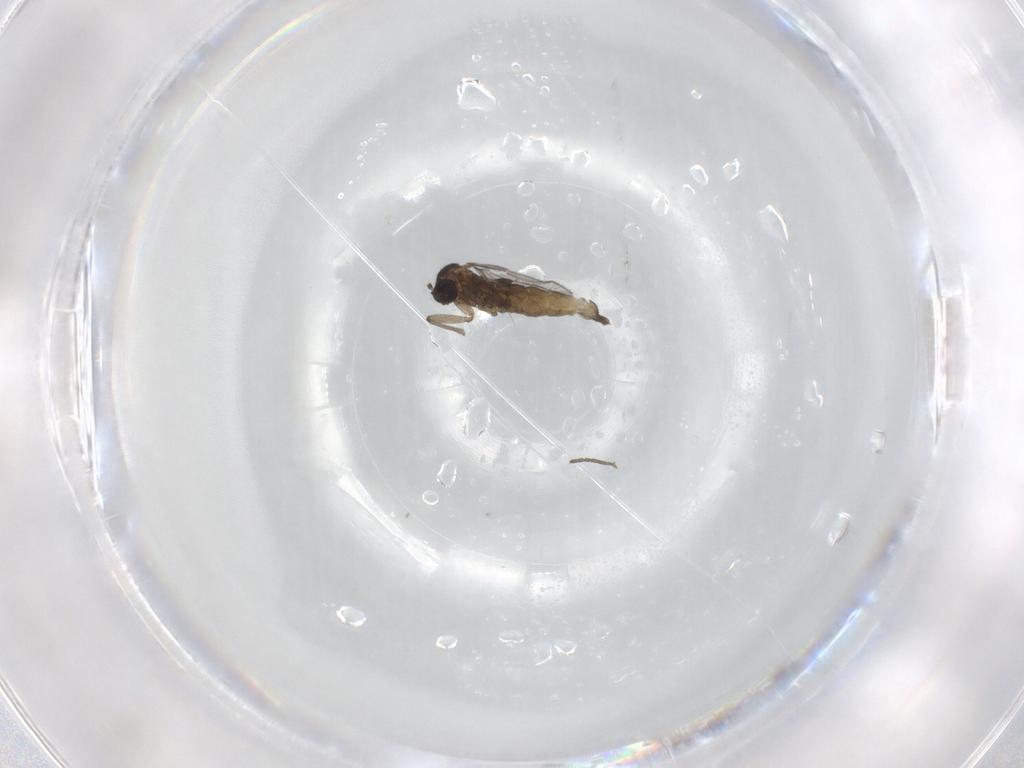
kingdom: Animalia
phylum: Arthropoda
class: Insecta
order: Diptera
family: Sciaridae
